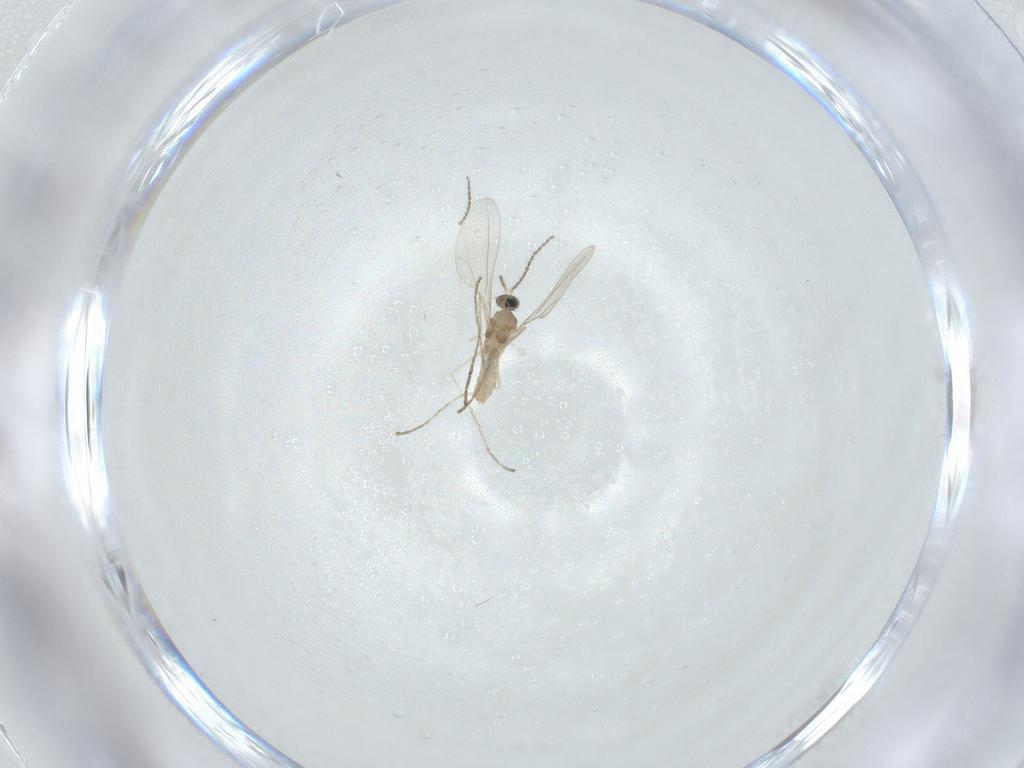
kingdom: Animalia
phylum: Arthropoda
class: Insecta
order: Diptera
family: Cecidomyiidae
